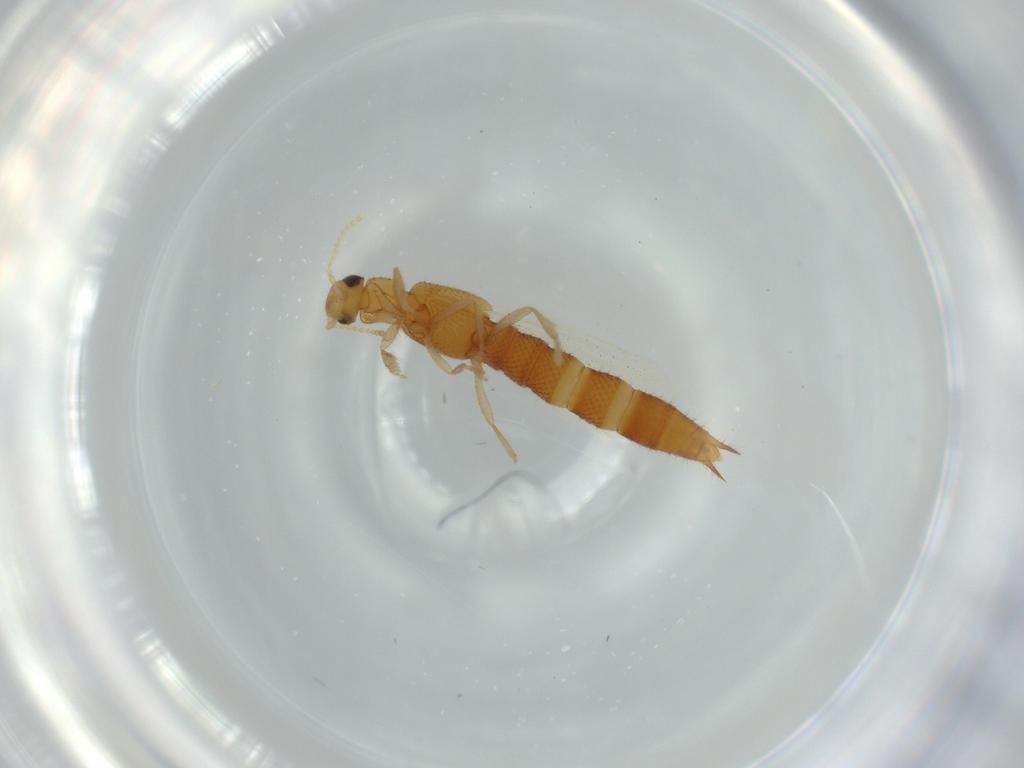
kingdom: Animalia
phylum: Arthropoda
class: Insecta
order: Coleoptera
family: Staphylinidae
